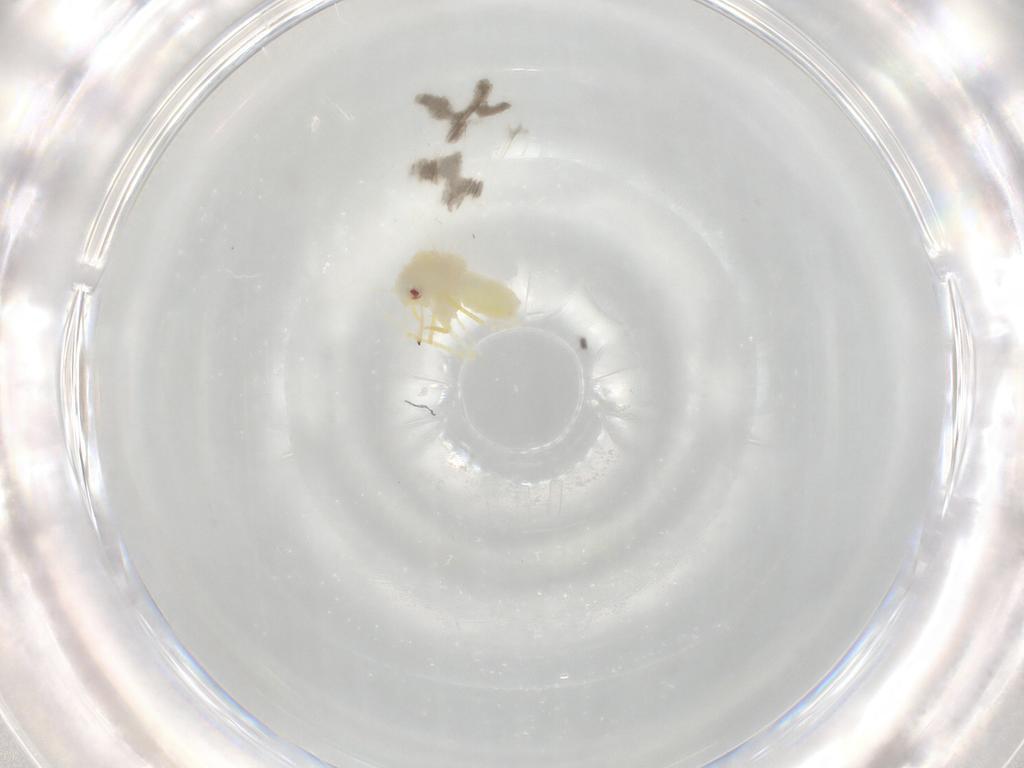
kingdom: Animalia
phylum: Arthropoda
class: Insecta
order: Hemiptera
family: Aleyrodidae
